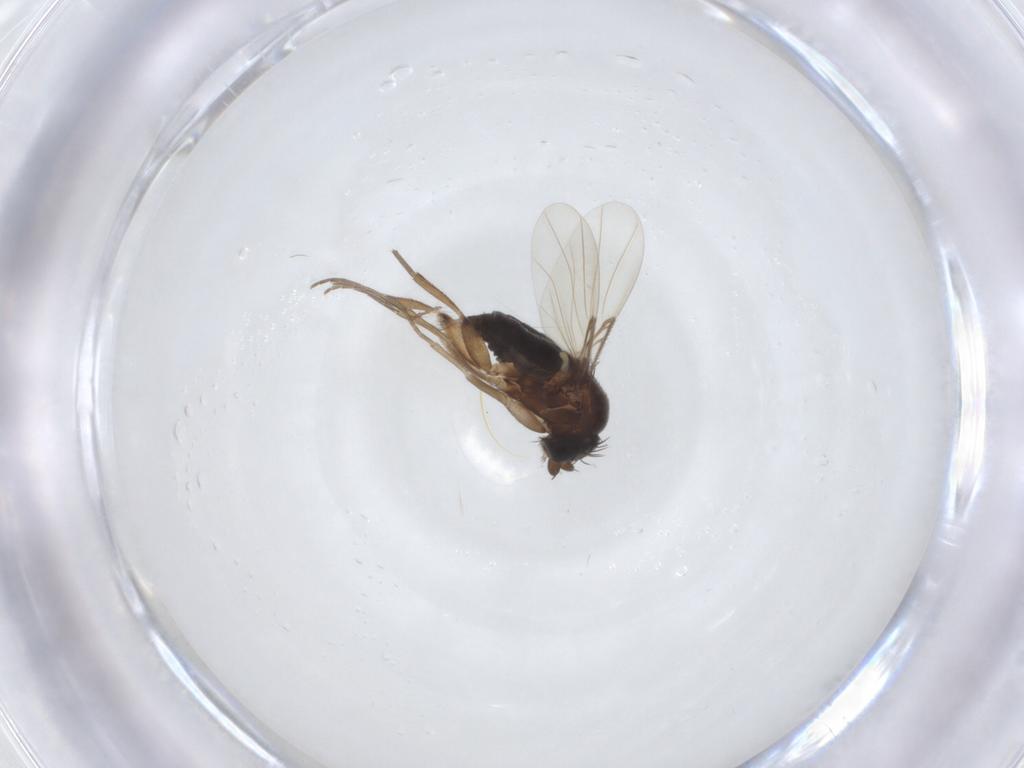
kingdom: Animalia
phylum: Arthropoda
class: Insecta
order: Diptera
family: Phoridae
